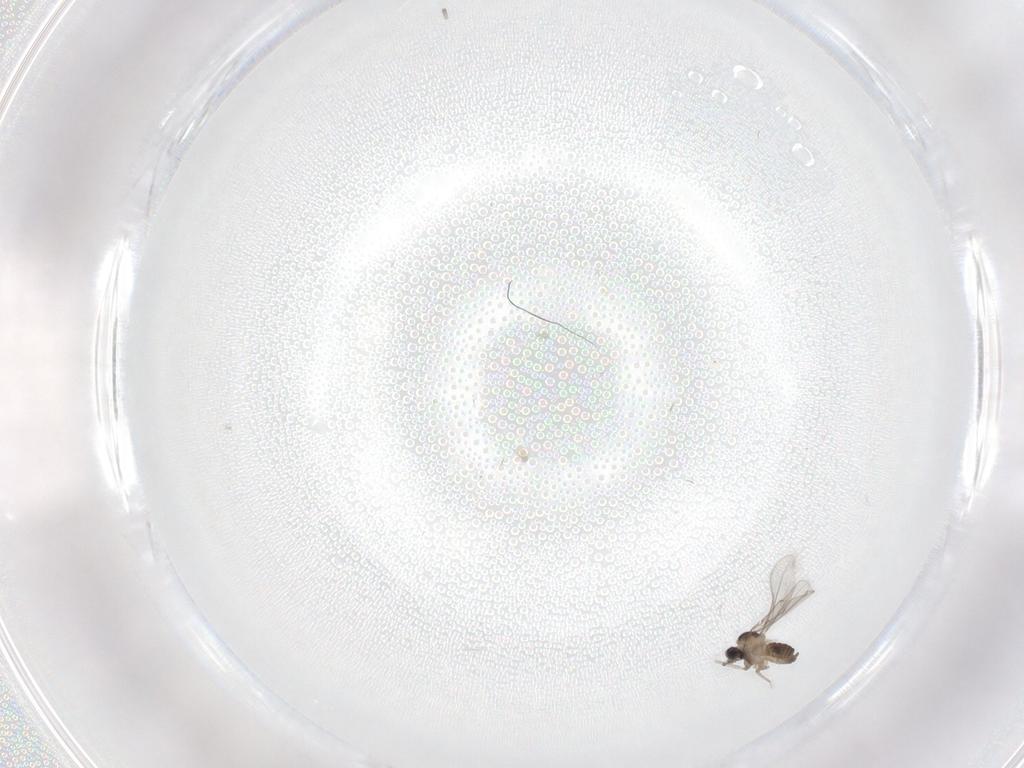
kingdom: Animalia
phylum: Arthropoda
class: Insecta
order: Diptera
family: Cecidomyiidae
